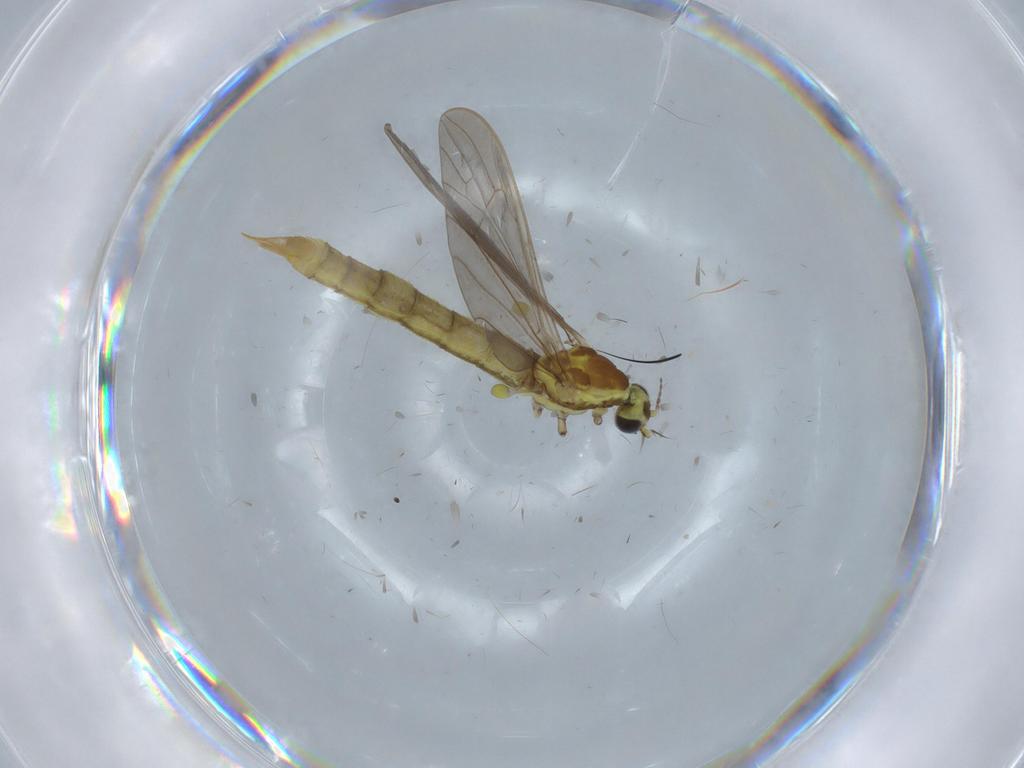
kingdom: Animalia
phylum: Arthropoda
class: Insecta
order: Diptera
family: Limoniidae
